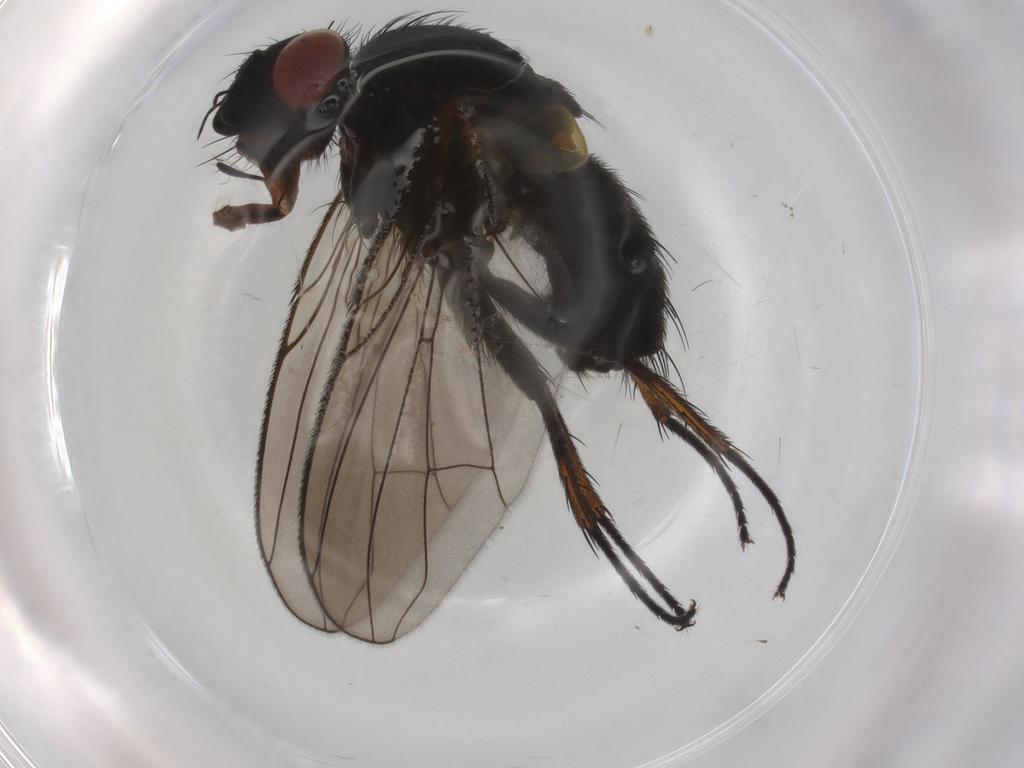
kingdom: Animalia
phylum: Arthropoda
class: Insecta
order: Diptera
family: Tachinidae
